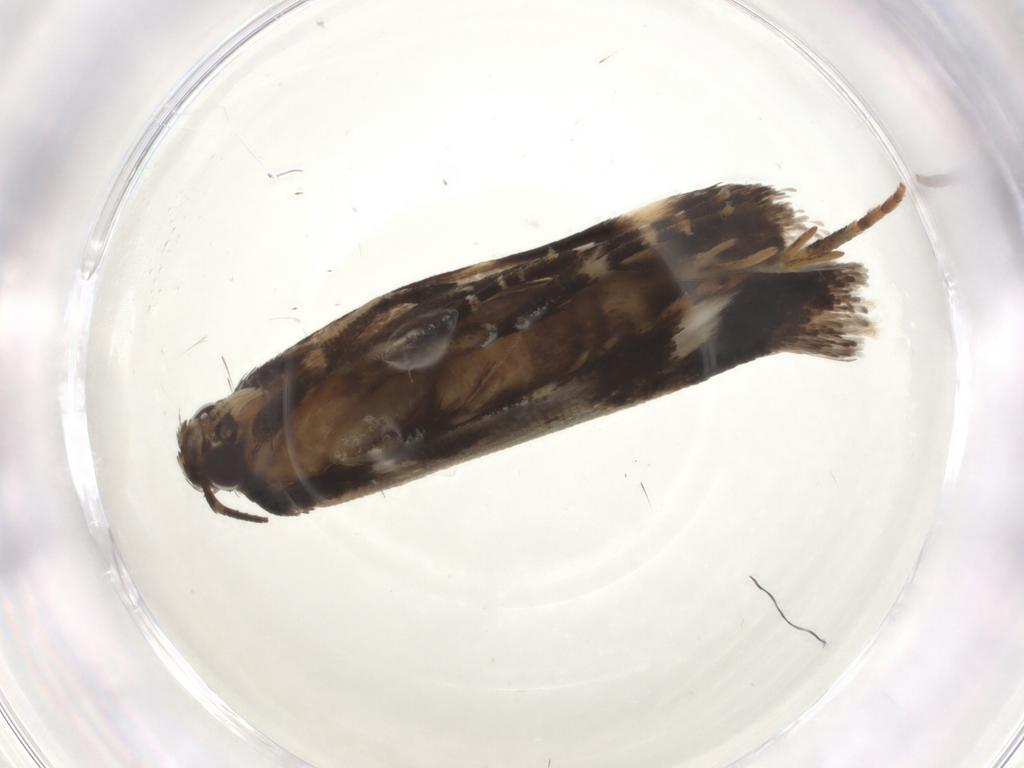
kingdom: Animalia
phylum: Arthropoda
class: Insecta
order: Lepidoptera
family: Gelechiidae
